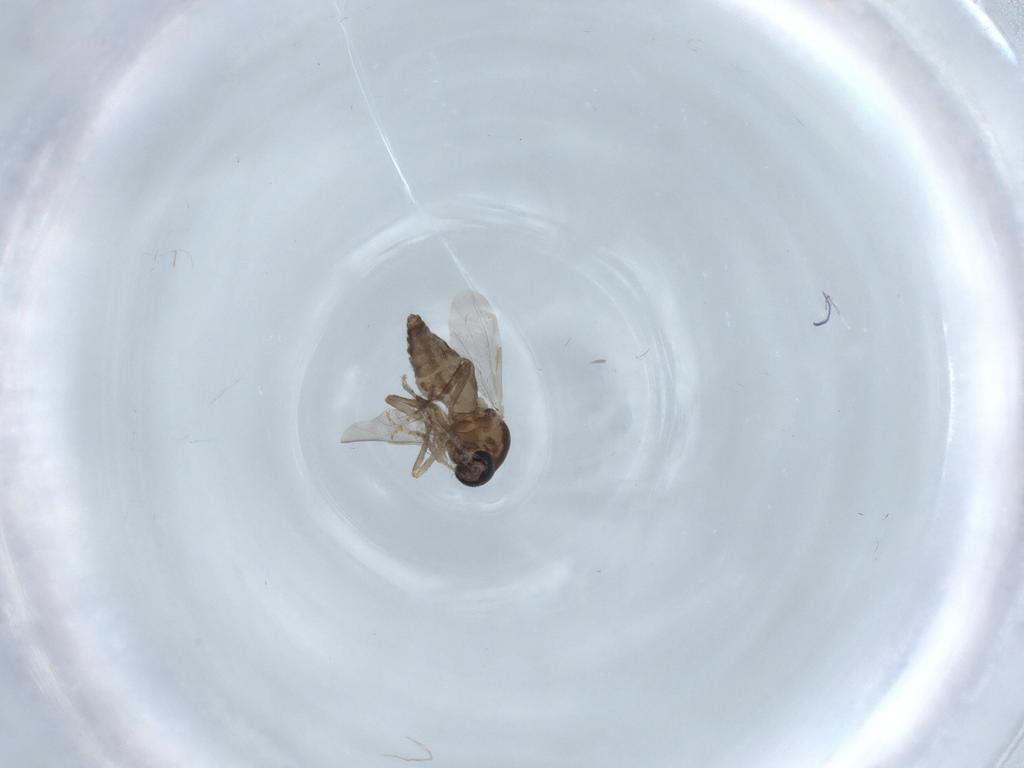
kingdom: Animalia
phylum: Arthropoda
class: Insecta
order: Diptera
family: Ceratopogonidae
